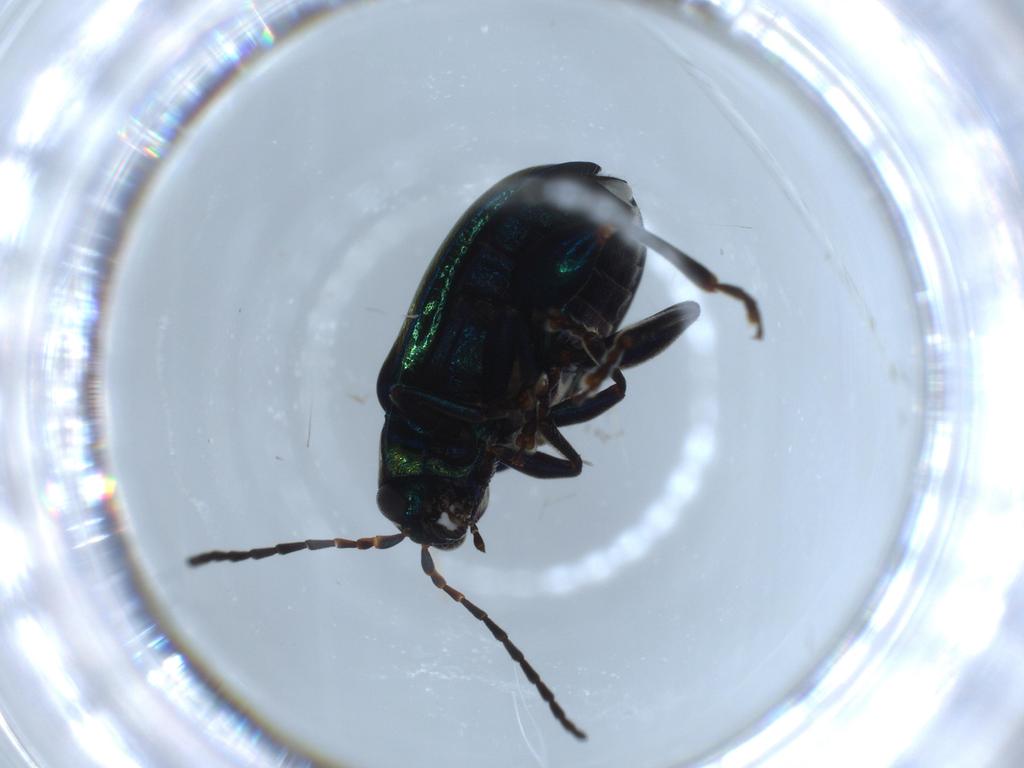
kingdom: Animalia
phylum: Arthropoda
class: Insecta
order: Coleoptera
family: Chrysomelidae
